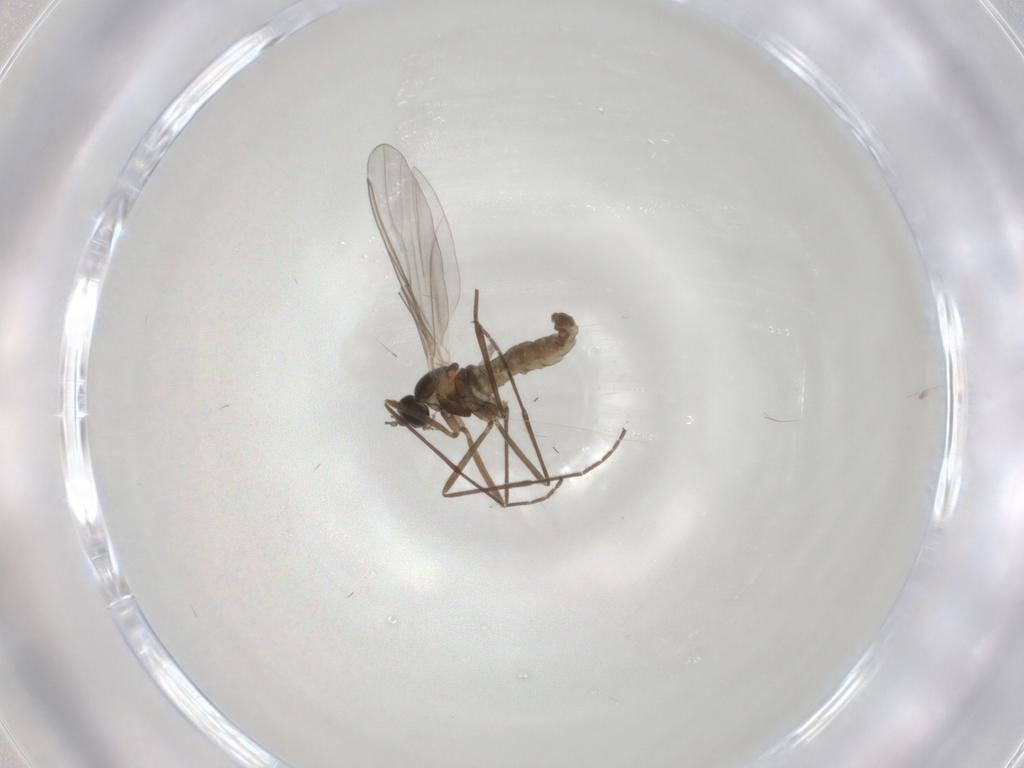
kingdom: Animalia
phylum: Arthropoda
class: Insecta
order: Diptera
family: Cecidomyiidae
